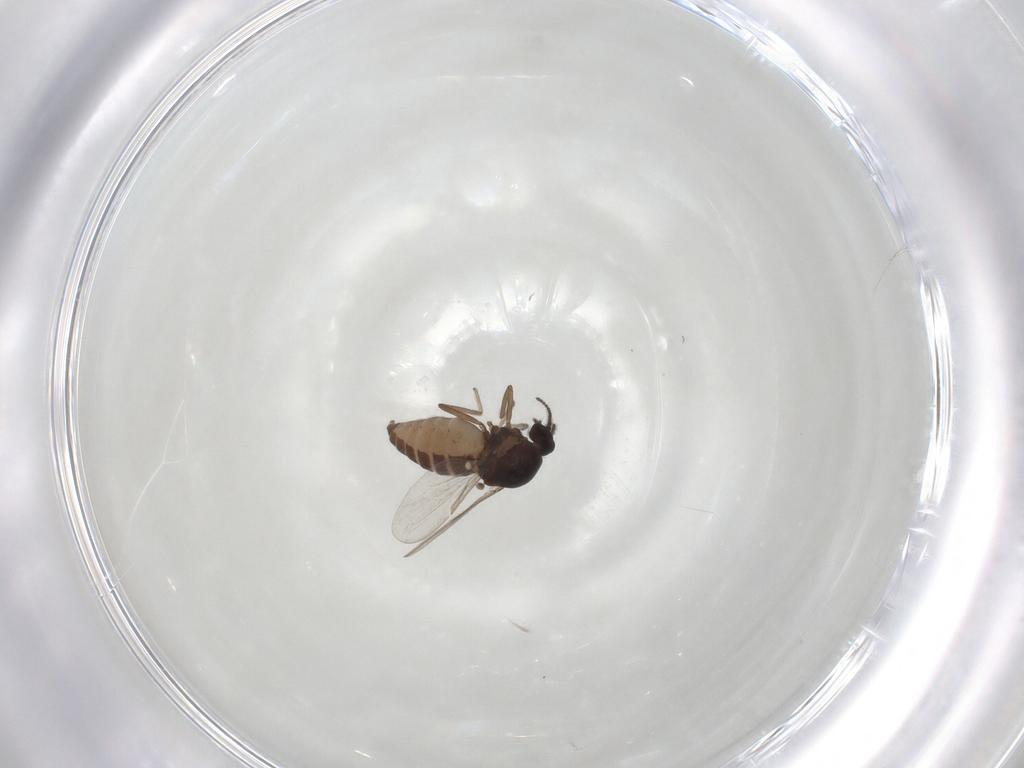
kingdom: Animalia
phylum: Arthropoda
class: Insecta
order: Diptera
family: Ceratopogonidae
